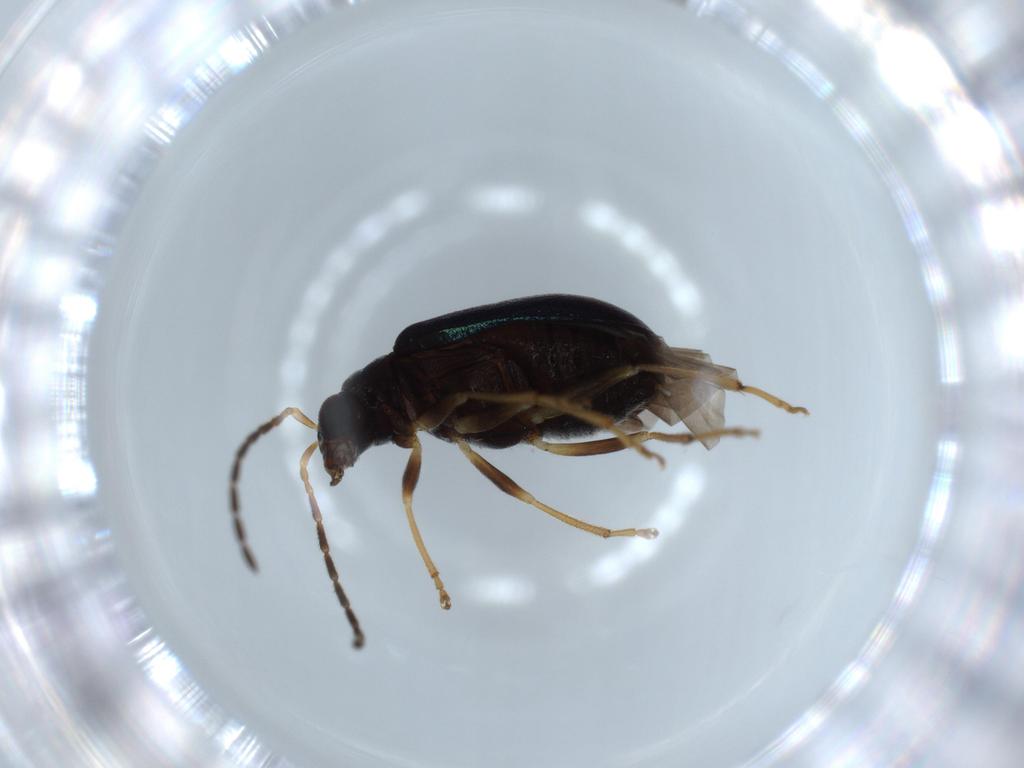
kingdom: Animalia
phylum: Arthropoda
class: Insecta
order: Coleoptera
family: Chrysomelidae
